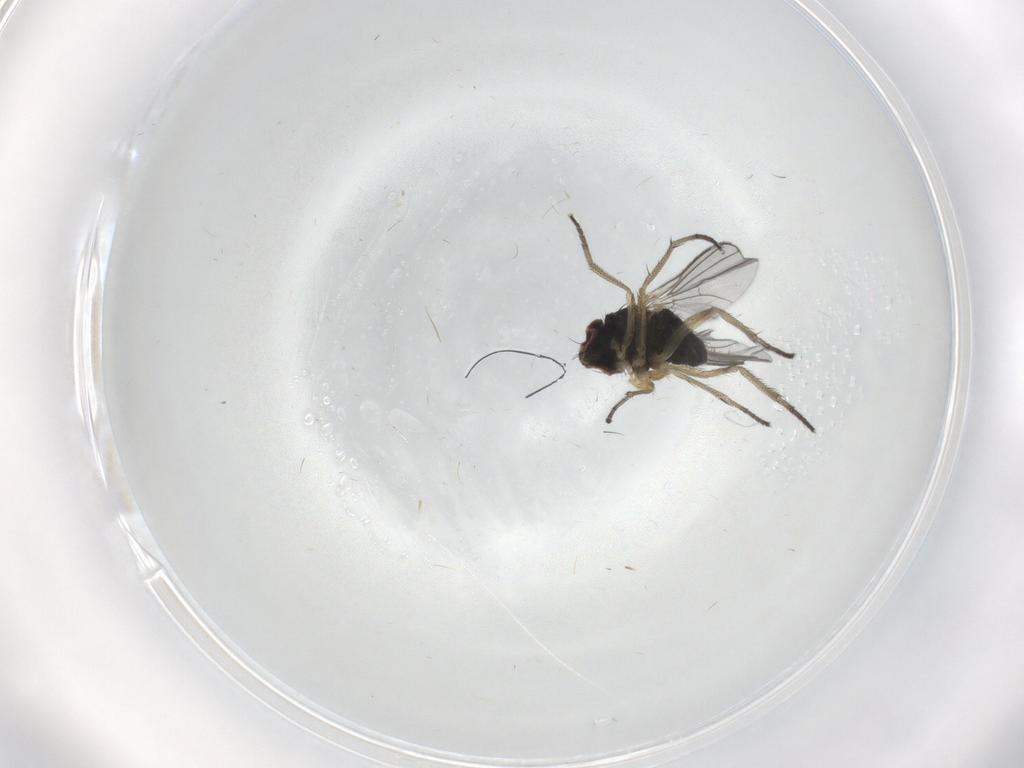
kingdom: Animalia
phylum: Arthropoda
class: Insecta
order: Diptera
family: Dolichopodidae
